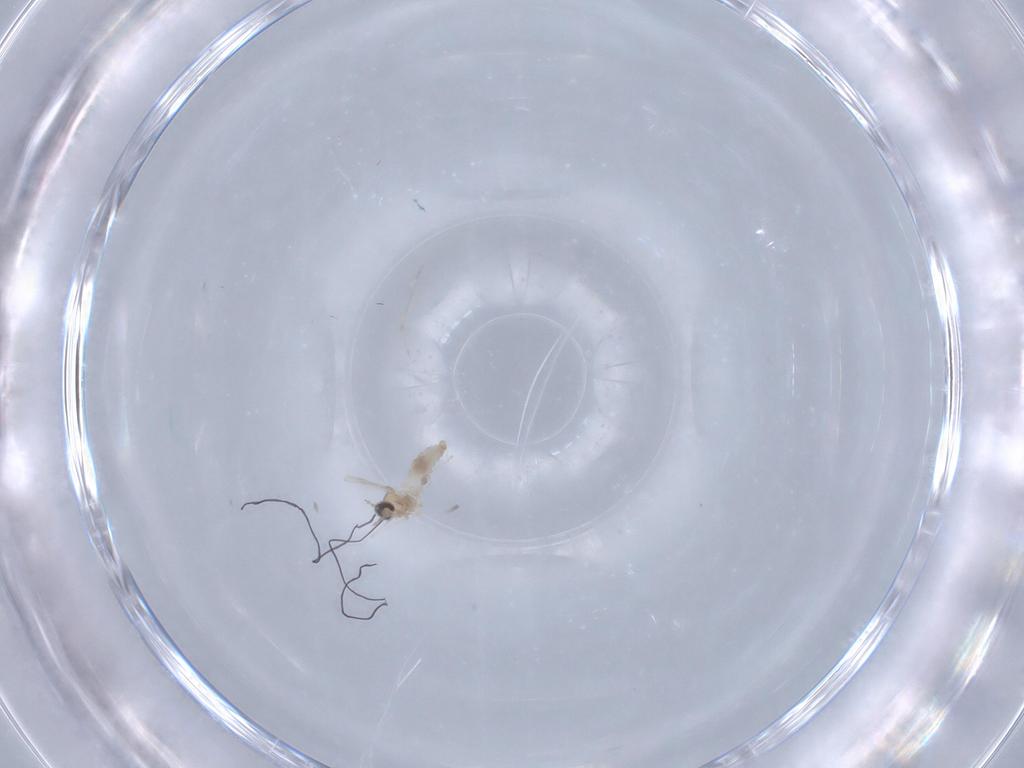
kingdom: Animalia
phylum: Arthropoda
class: Insecta
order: Diptera
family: Cecidomyiidae
